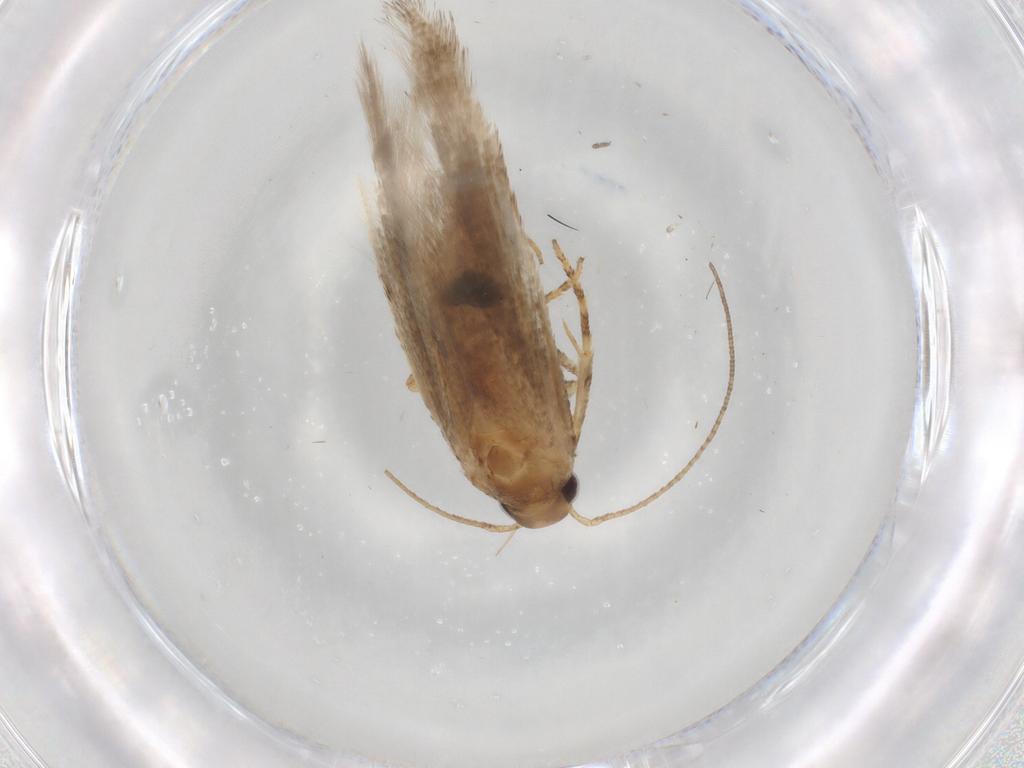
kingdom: Animalia
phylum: Arthropoda
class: Insecta
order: Lepidoptera
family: Gelechiidae
